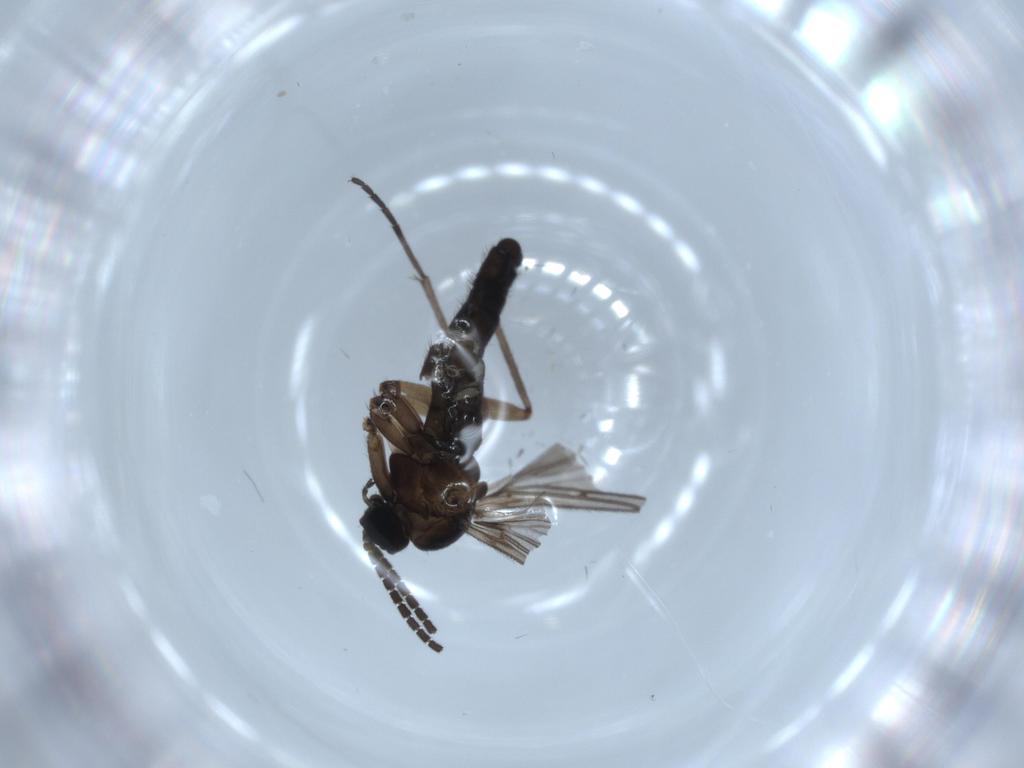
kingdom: Animalia
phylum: Arthropoda
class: Insecta
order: Diptera
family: Sciaridae
